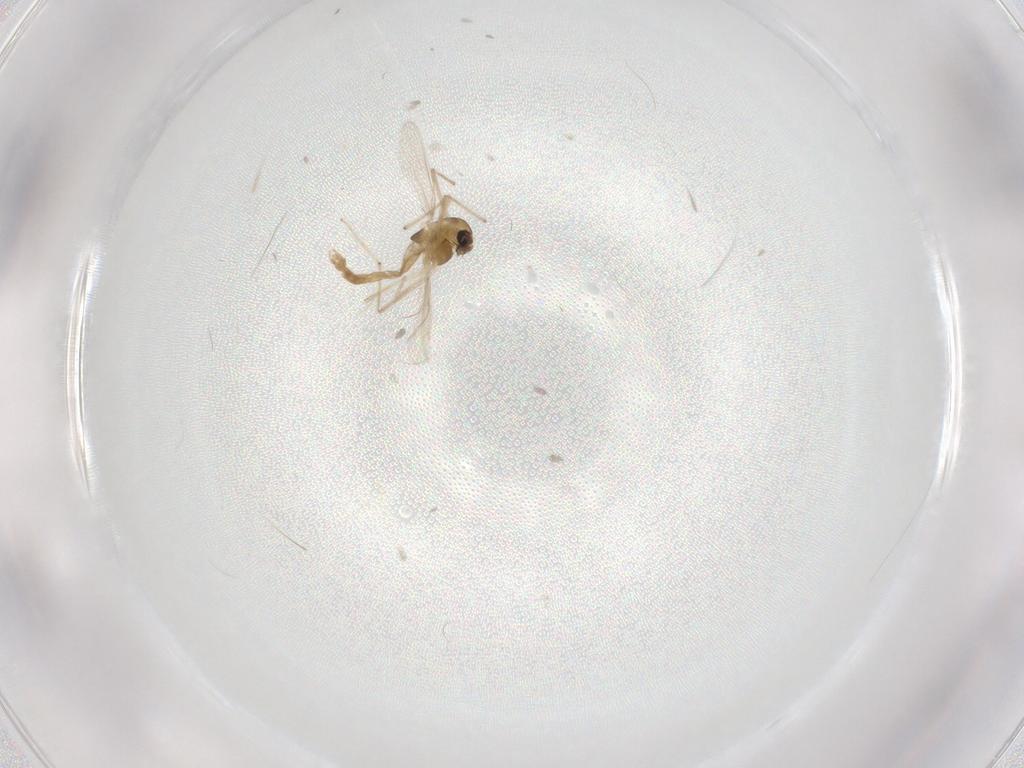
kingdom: Animalia
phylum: Arthropoda
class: Insecta
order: Diptera
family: Chironomidae
